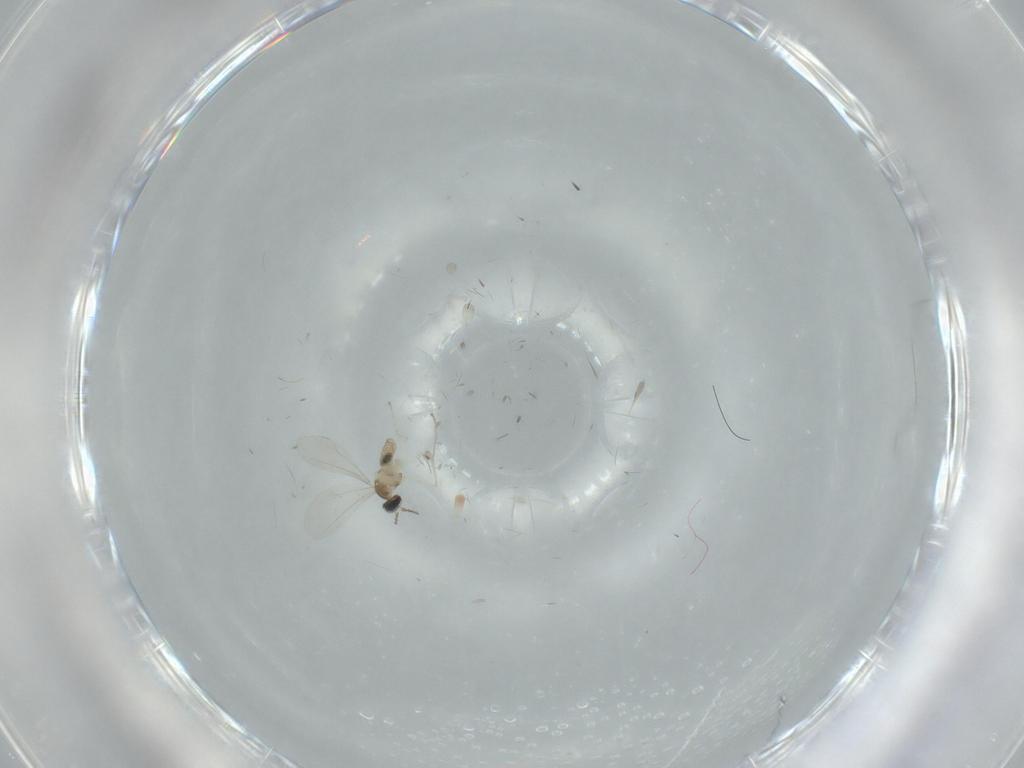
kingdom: Animalia
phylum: Arthropoda
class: Insecta
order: Diptera
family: Cecidomyiidae
